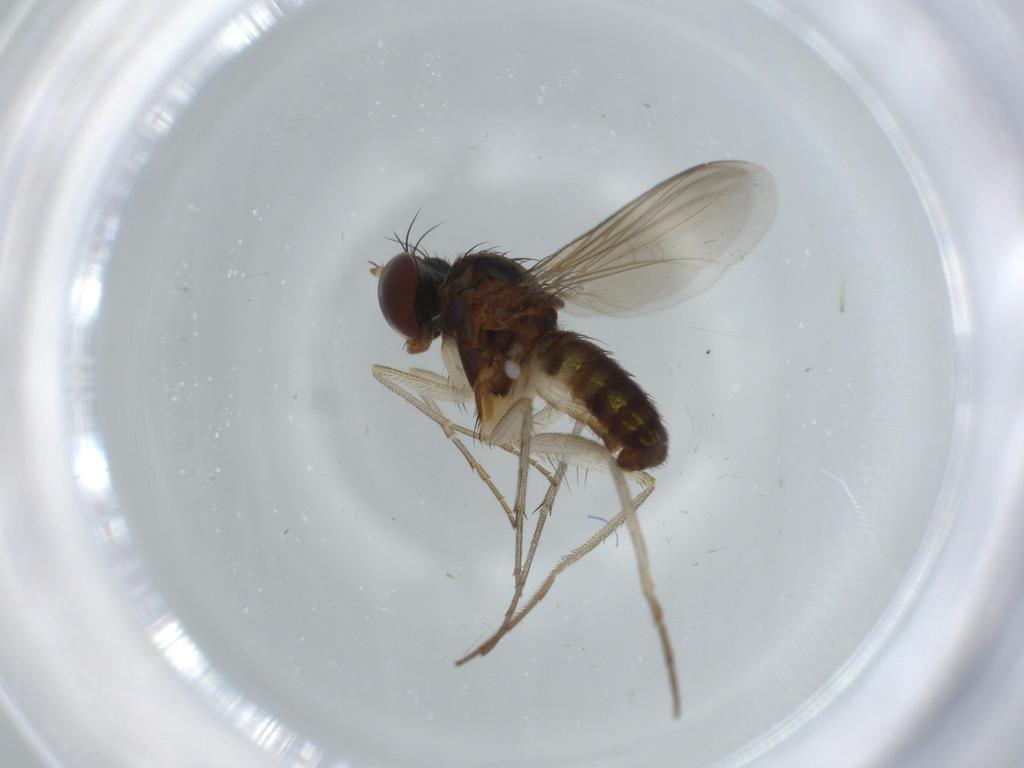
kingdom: Animalia
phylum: Arthropoda
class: Insecta
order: Diptera
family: Dolichopodidae
